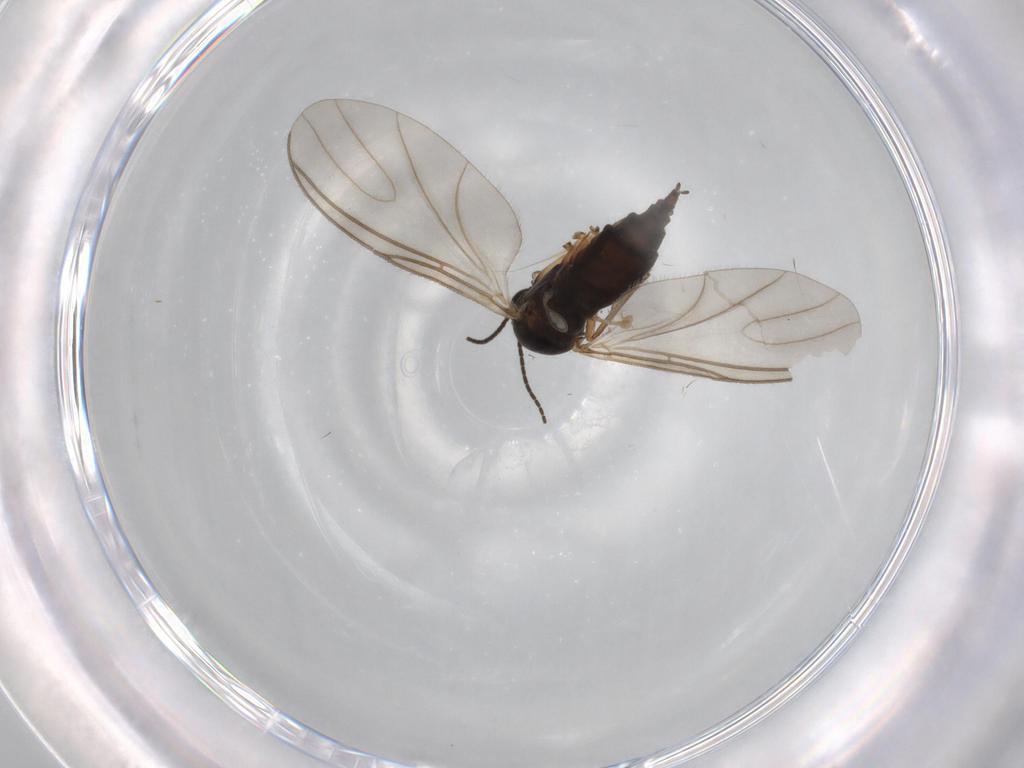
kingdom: Animalia
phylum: Arthropoda
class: Insecta
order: Diptera
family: Sciaridae
